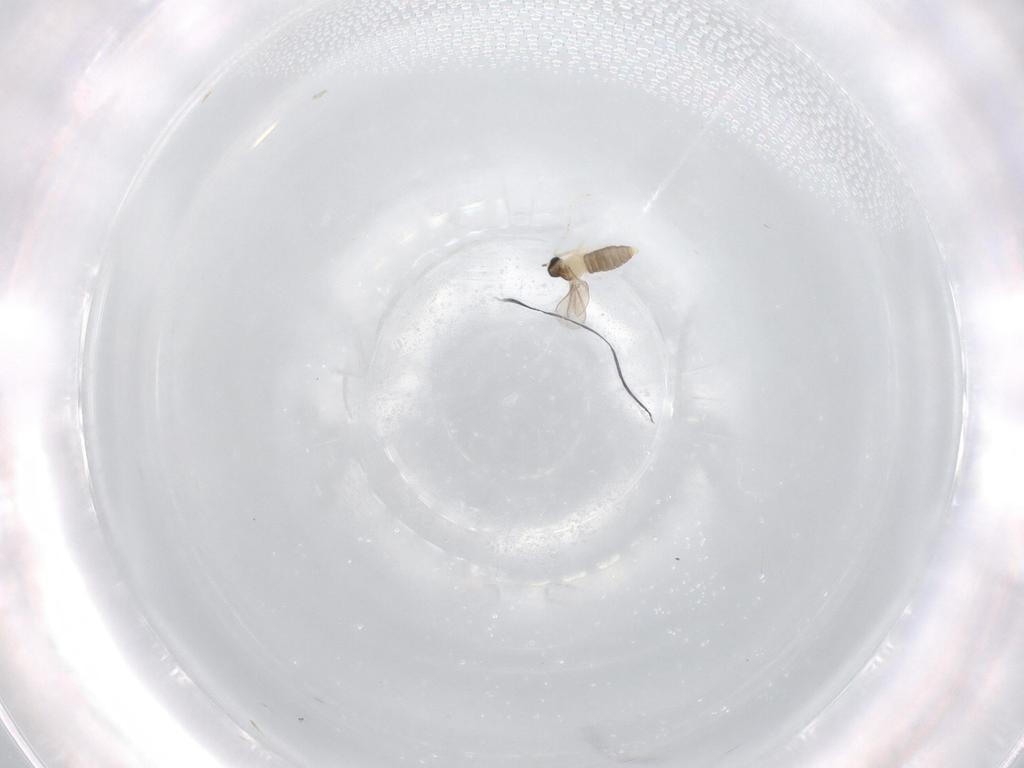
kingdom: Animalia
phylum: Arthropoda
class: Insecta
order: Diptera
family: Cecidomyiidae
